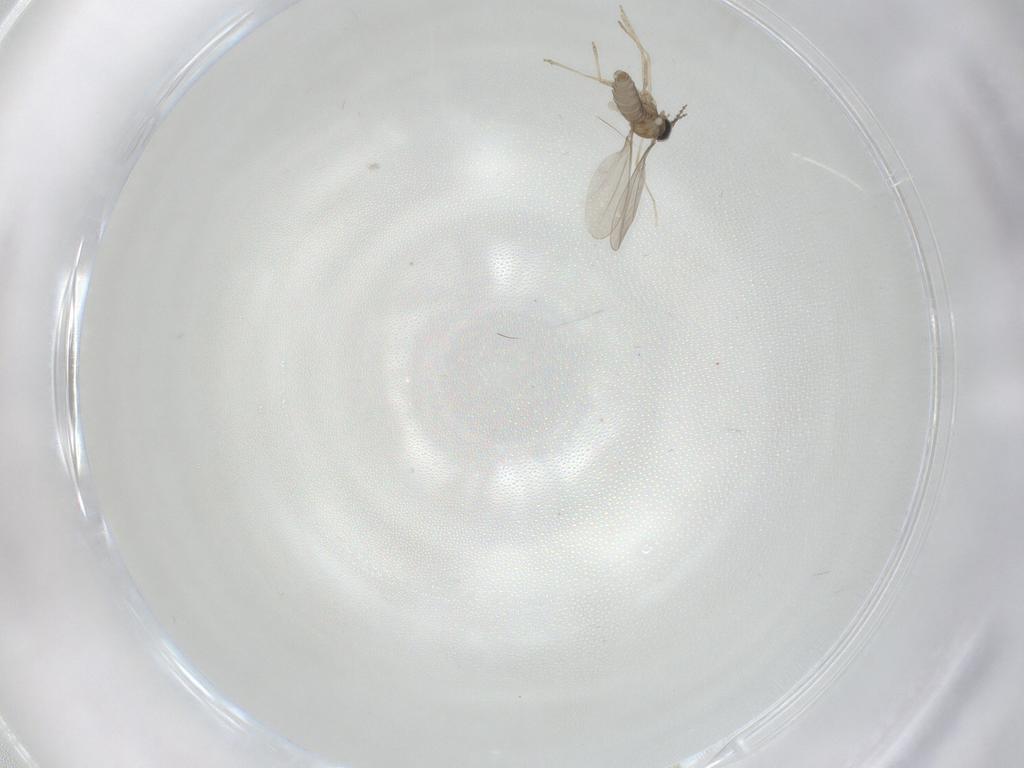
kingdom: Animalia
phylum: Arthropoda
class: Insecta
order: Diptera
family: Cecidomyiidae
